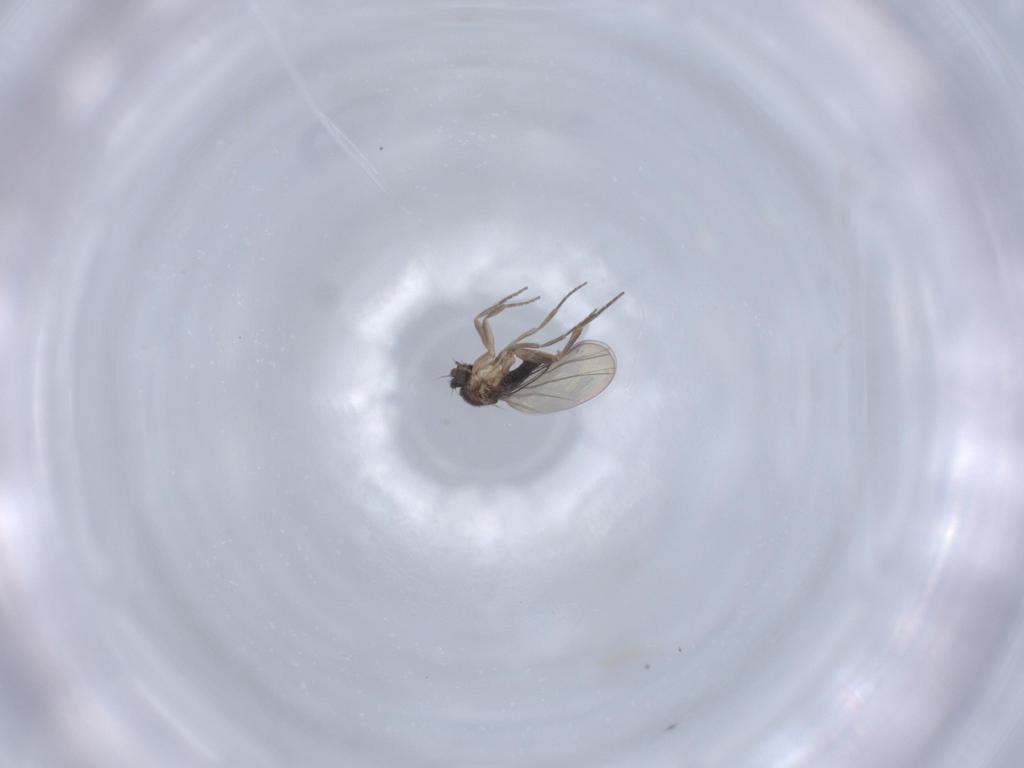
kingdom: Animalia
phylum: Arthropoda
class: Insecta
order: Diptera
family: Phoridae
